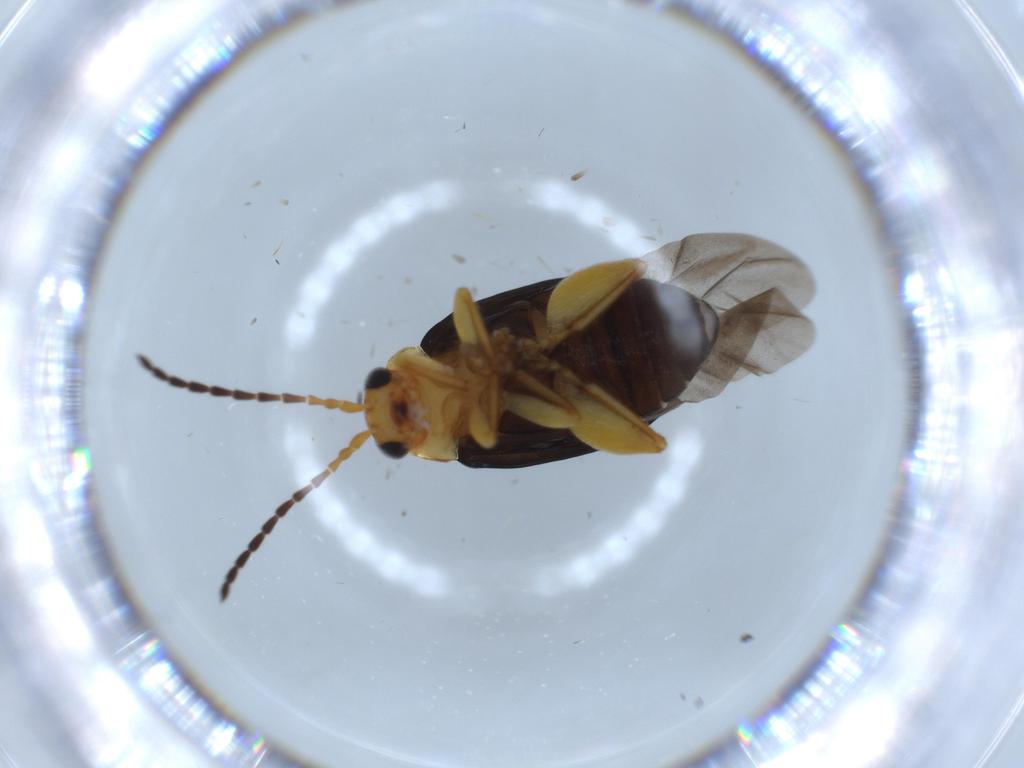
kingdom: Animalia
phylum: Arthropoda
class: Insecta
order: Coleoptera
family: Chrysomelidae
